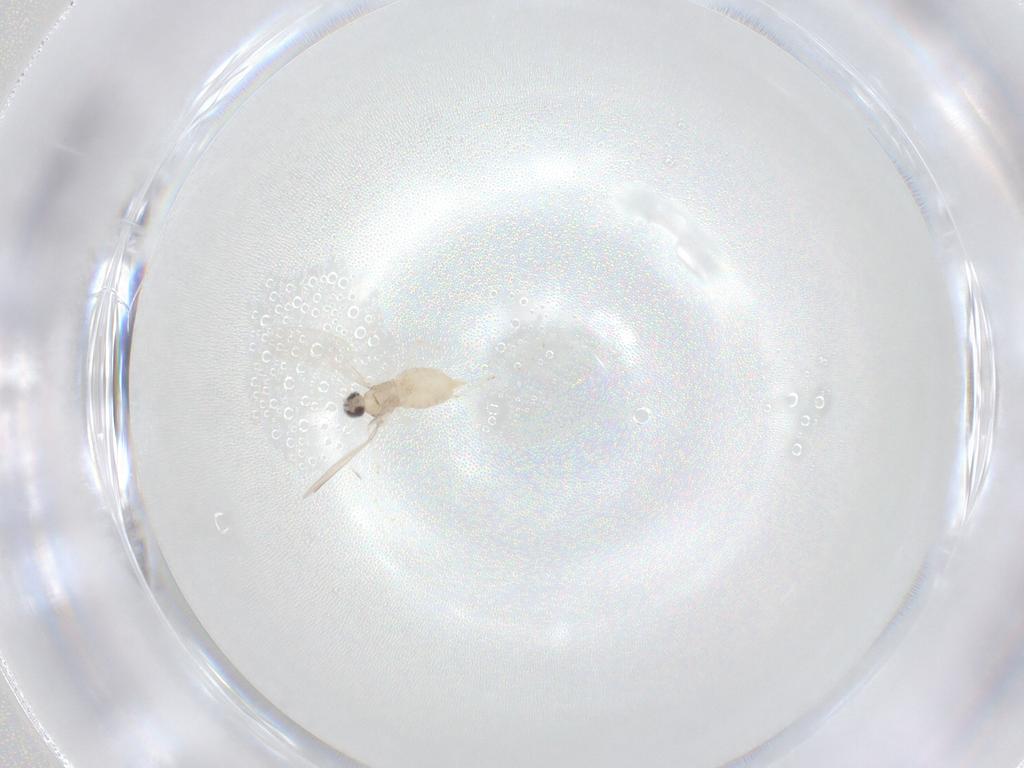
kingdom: Animalia
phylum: Arthropoda
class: Insecta
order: Diptera
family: Cecidomyiidae
